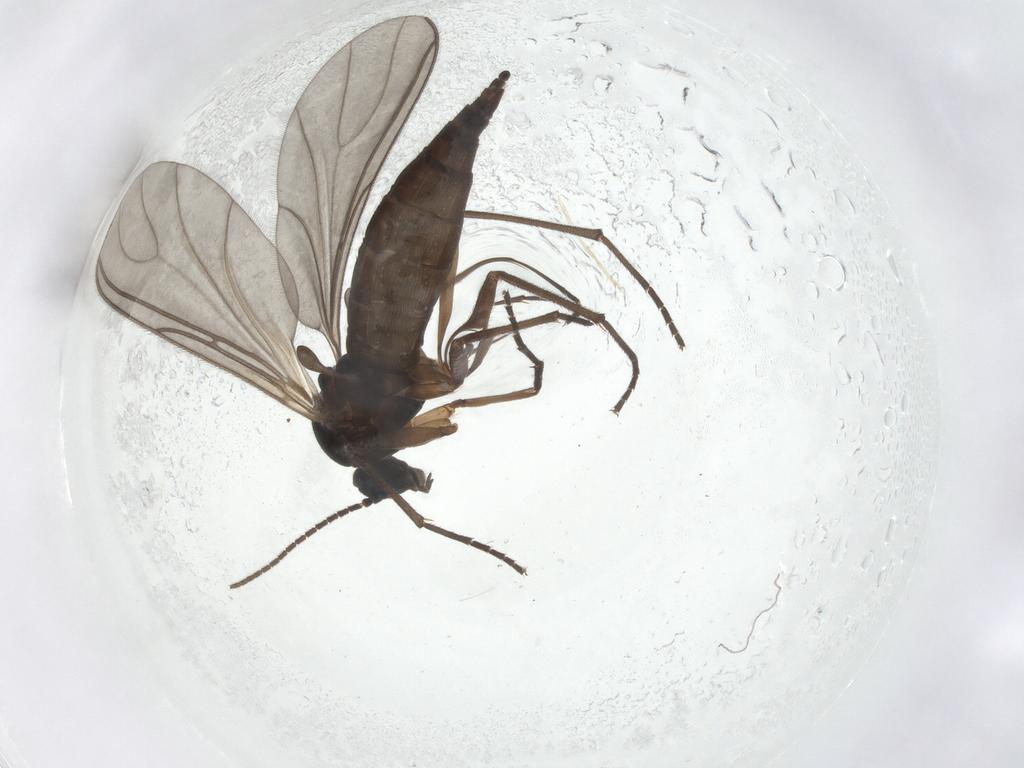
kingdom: Animalia
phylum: Arthropoda
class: Insecta
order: Diptera
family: Sciaridae
